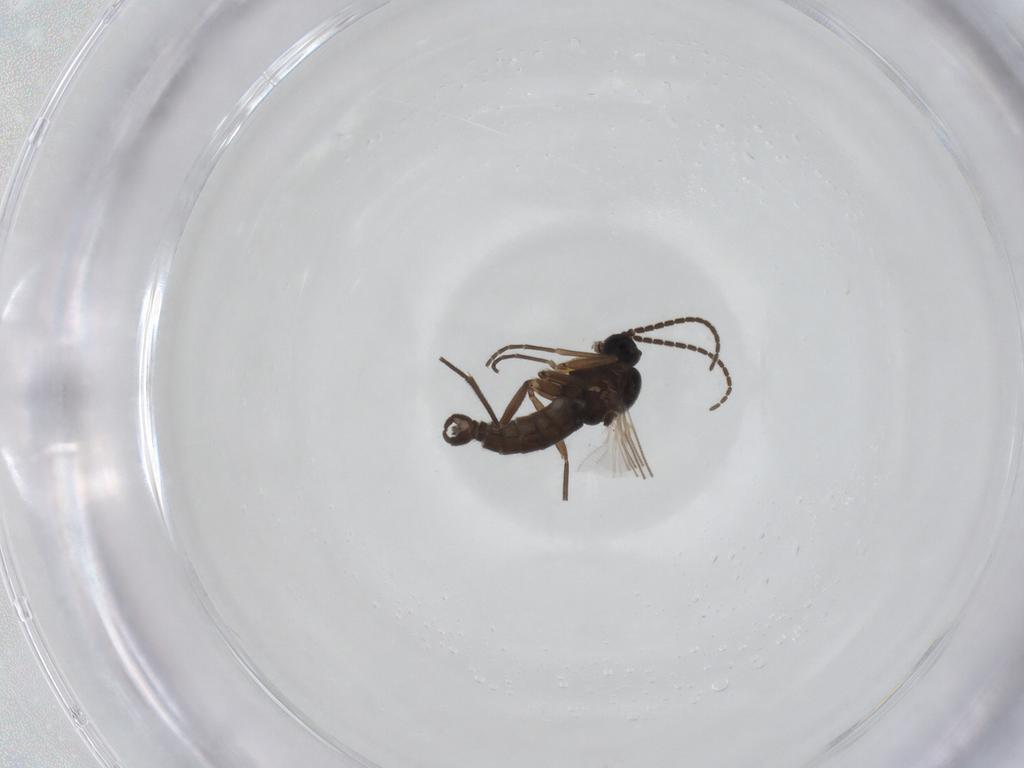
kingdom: Animalia
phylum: Arthropoda
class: Insecta
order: Diptera
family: Sciaridae
